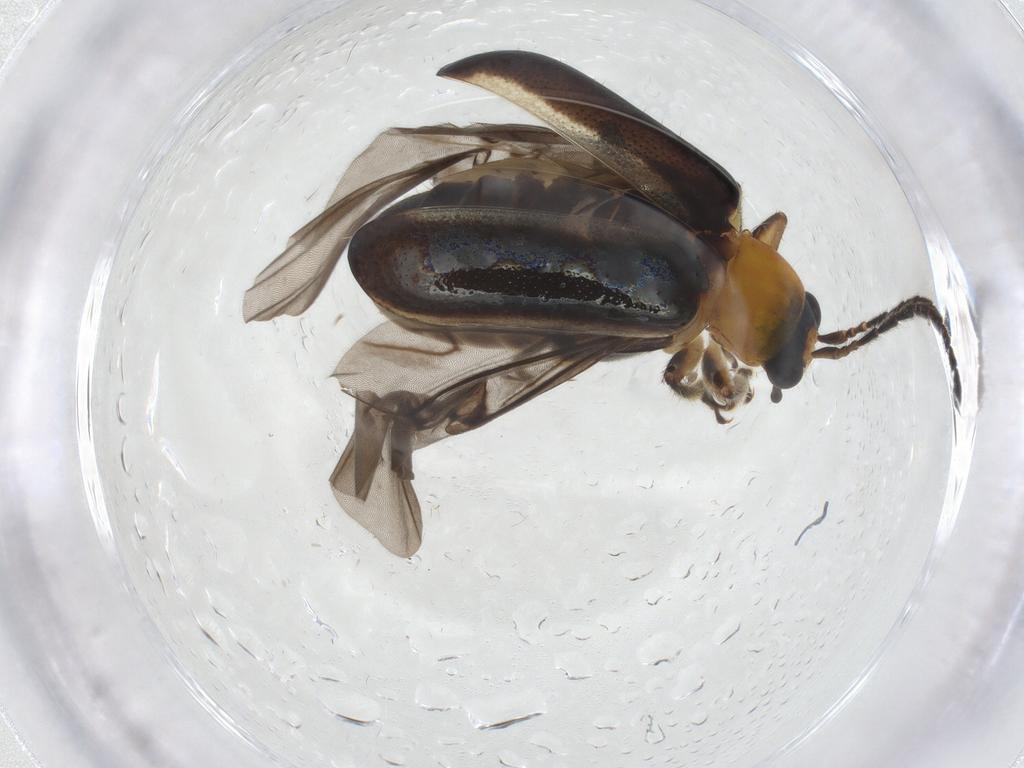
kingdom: Animalia
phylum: Arthropoda
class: Insecta
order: Coleoptera
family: Chrysomelidae
